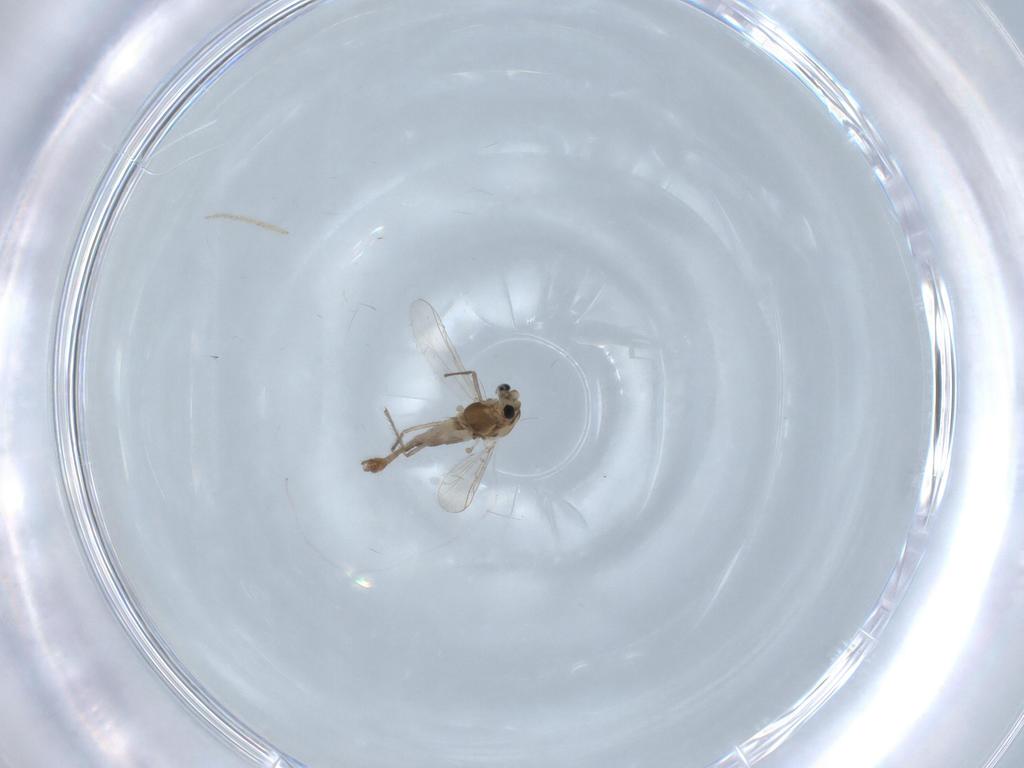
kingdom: Animalia
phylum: Arthropoda
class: Insecta
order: Diptera
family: Chironomidae
